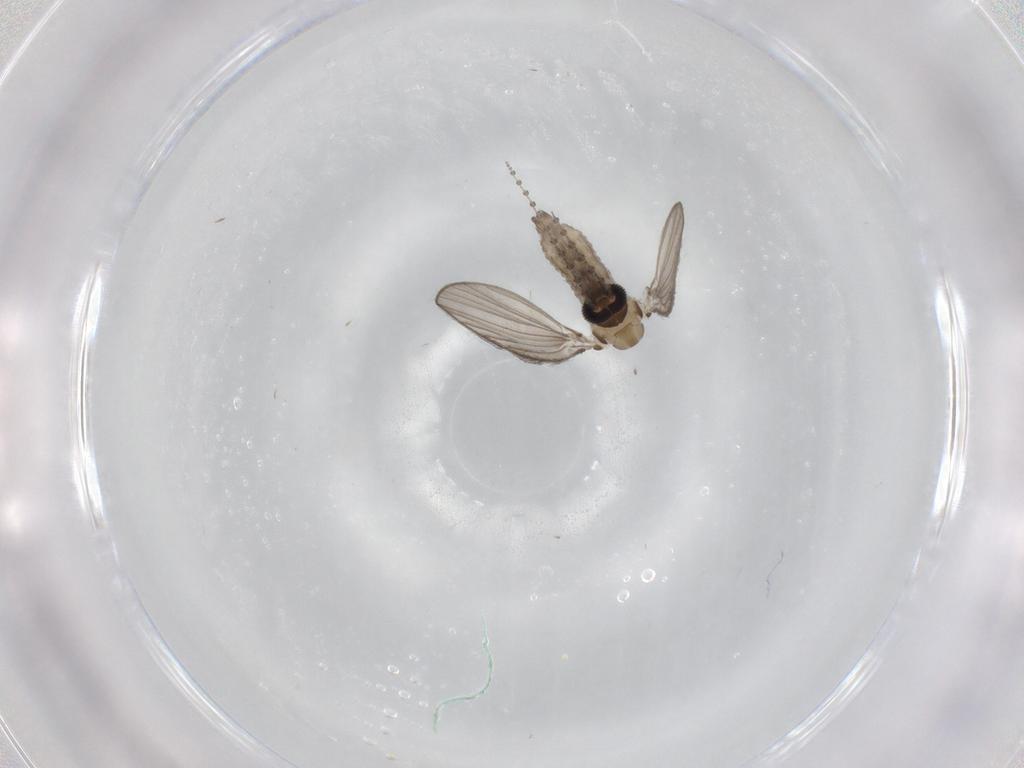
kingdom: Animalia
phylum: Arthropoda
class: Insecta
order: Diptera
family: Psychodidae
